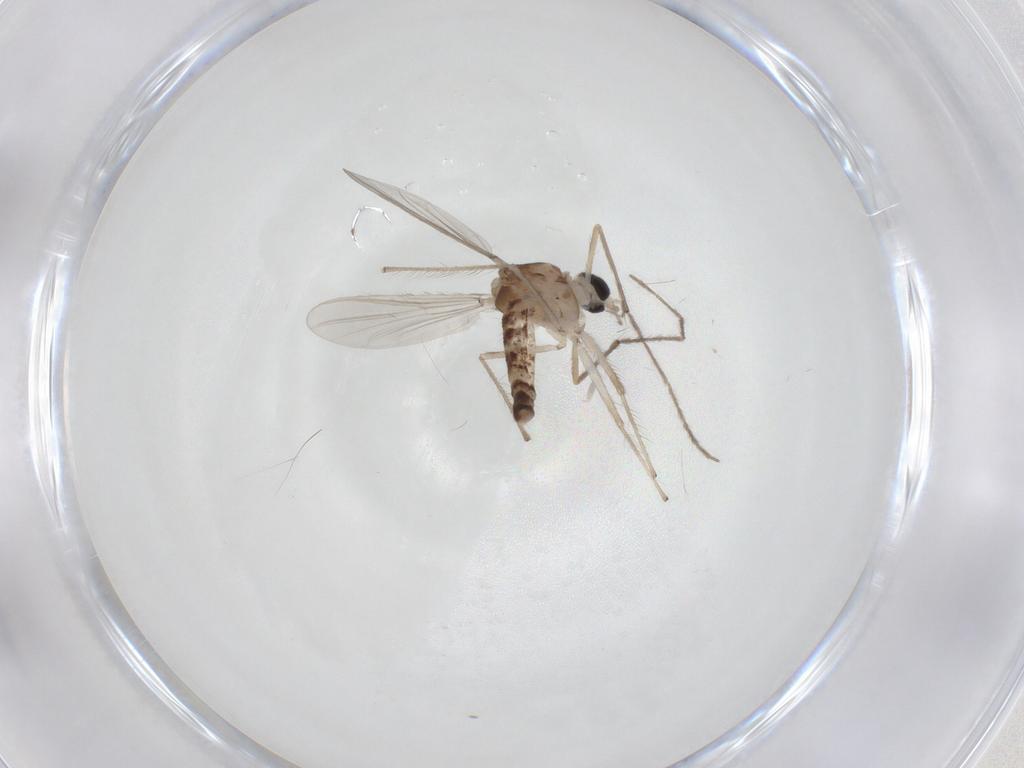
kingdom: Animalia
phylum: Arthropoda
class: Insecta
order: Diptera
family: Chironomidae
